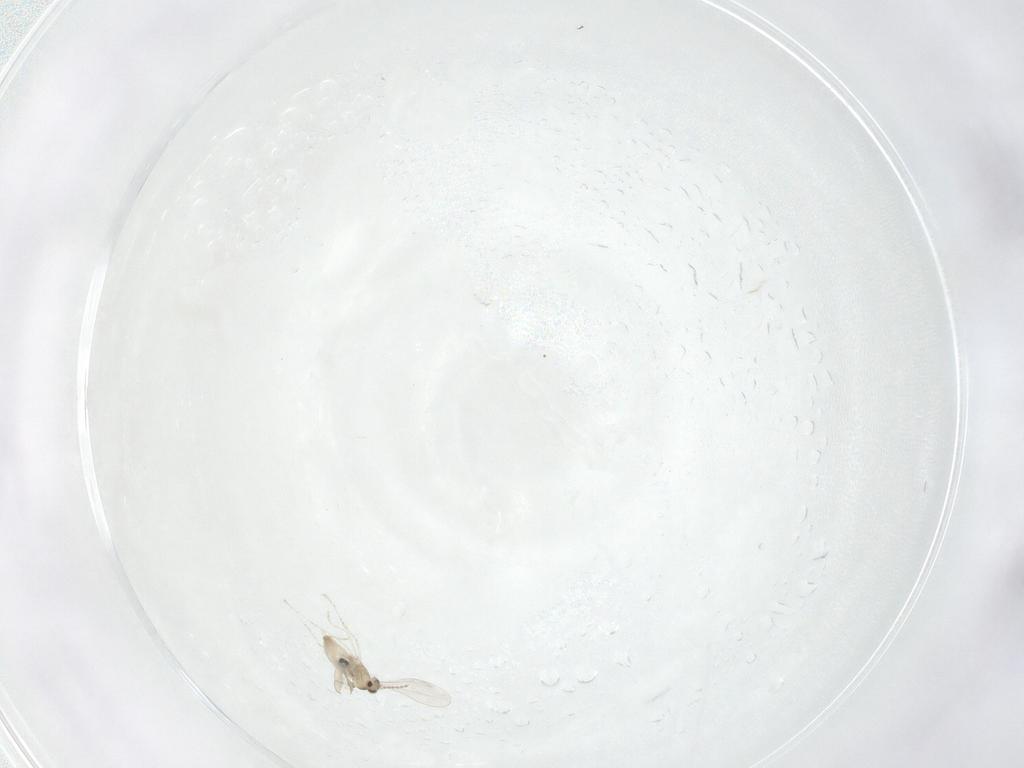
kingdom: Animalia
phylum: Arthropoda
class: Insecta
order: Diptera
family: Cecidomyiidae
